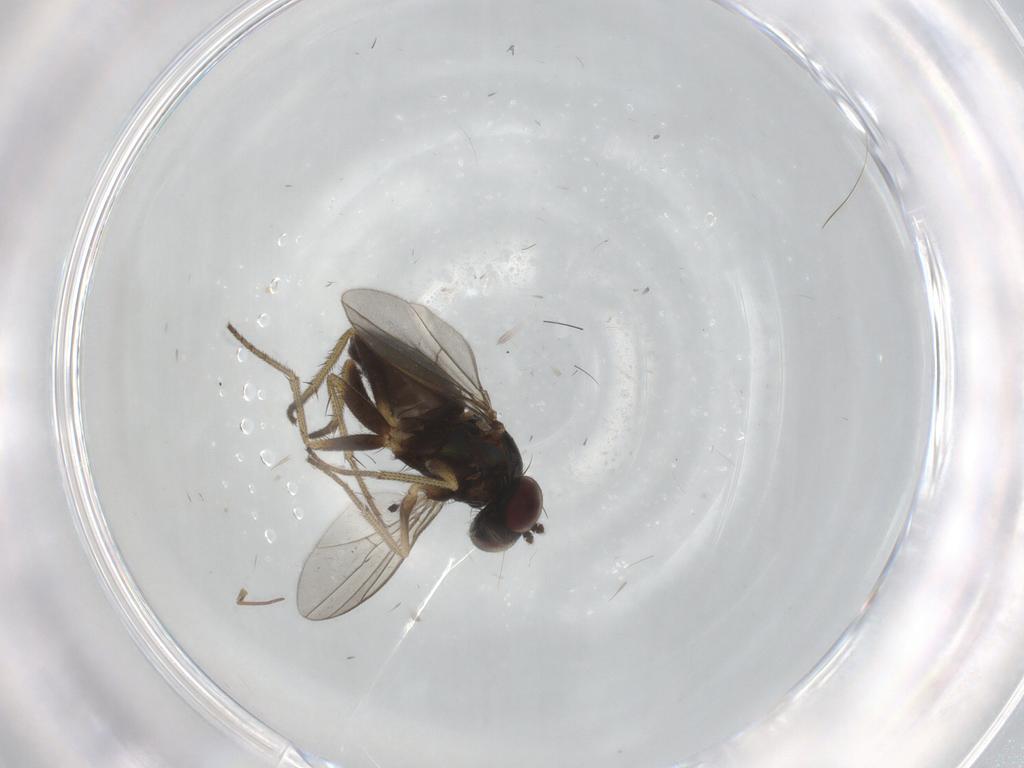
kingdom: Animalia
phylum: Arthropoda
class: Insecta
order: Diptera
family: Dolichopodidae
